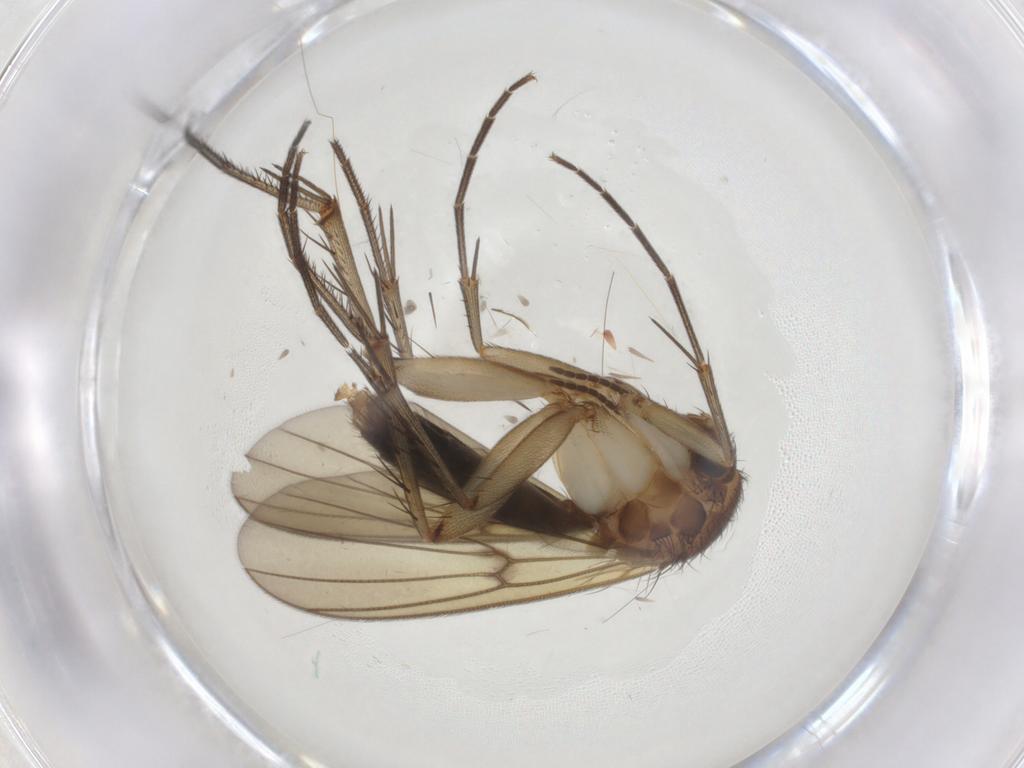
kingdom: Animalia
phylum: Arthropoda
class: Insecta
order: Diptera
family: Mycetophilidae
